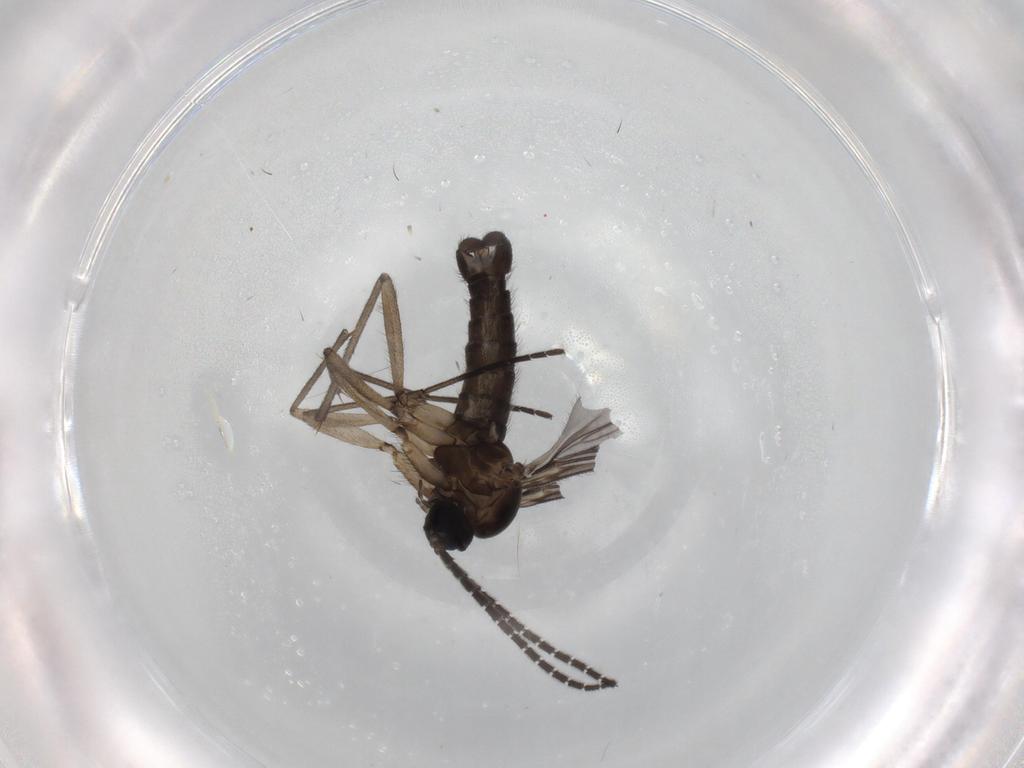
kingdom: Animalia
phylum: Arthropoda
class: Insecta
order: Diptera
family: Sciaridae
